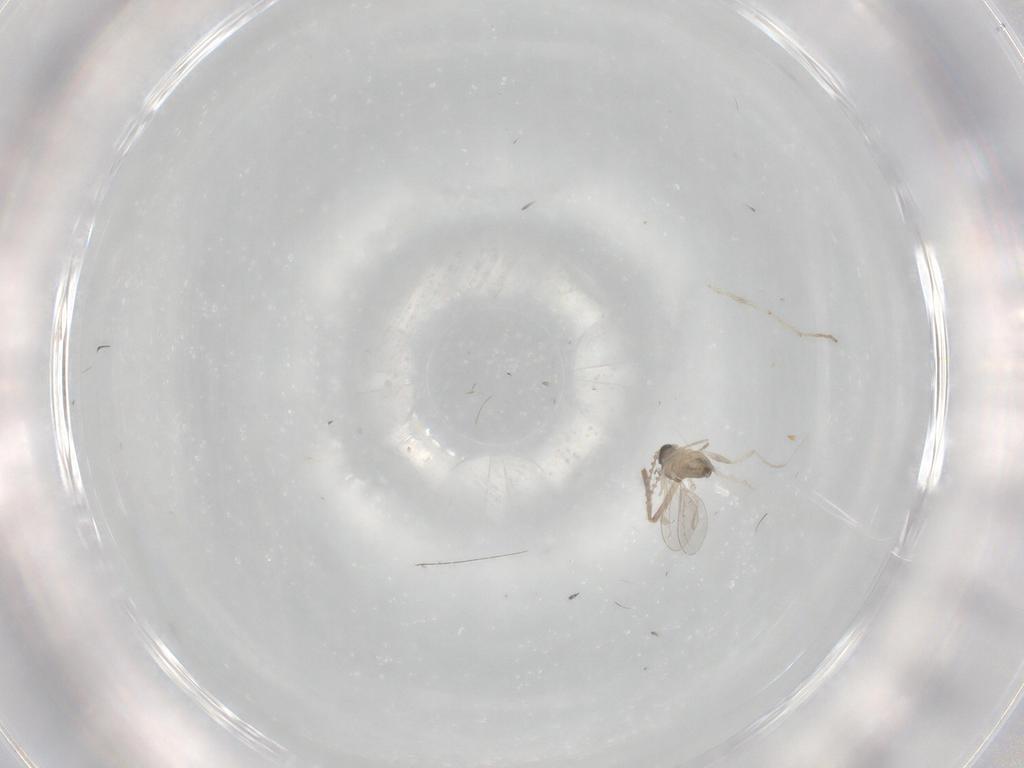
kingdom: Animalia
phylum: Arthropoda
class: Insecta
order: Diptera
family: Cecidomyiidae
